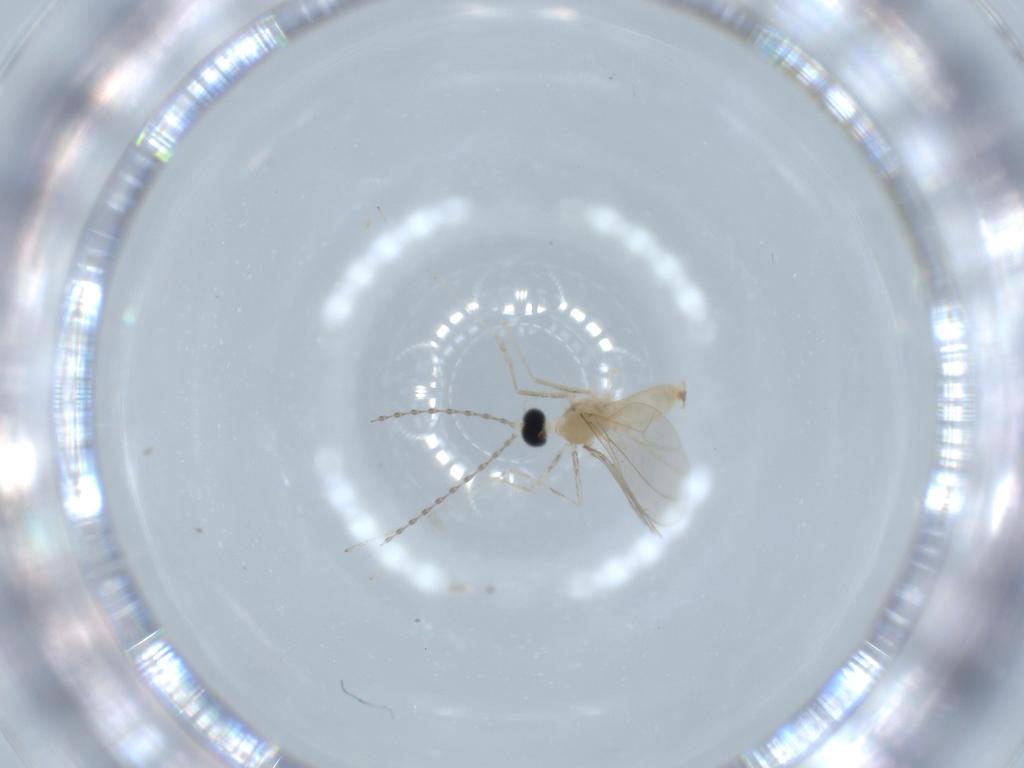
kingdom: Animalia
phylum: Arthropoda
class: Insecta
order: Diptera
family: Cecidomyiidae
